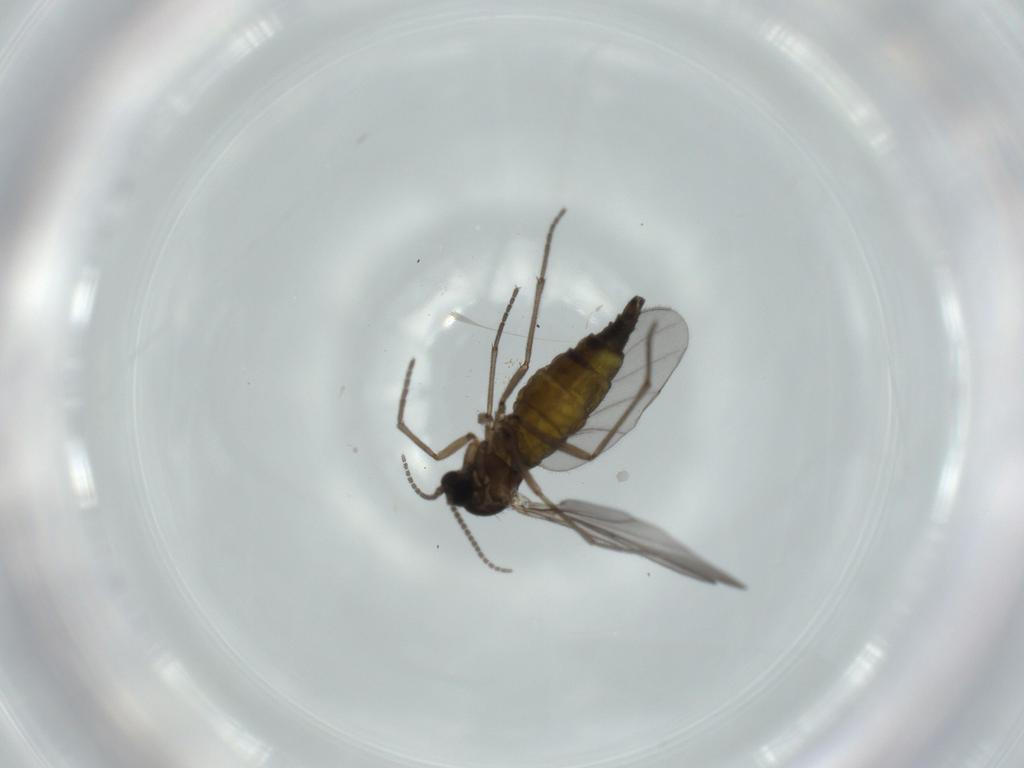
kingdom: Animalia
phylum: Arthropoda
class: Insecta
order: Diptera
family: Sciaridae
